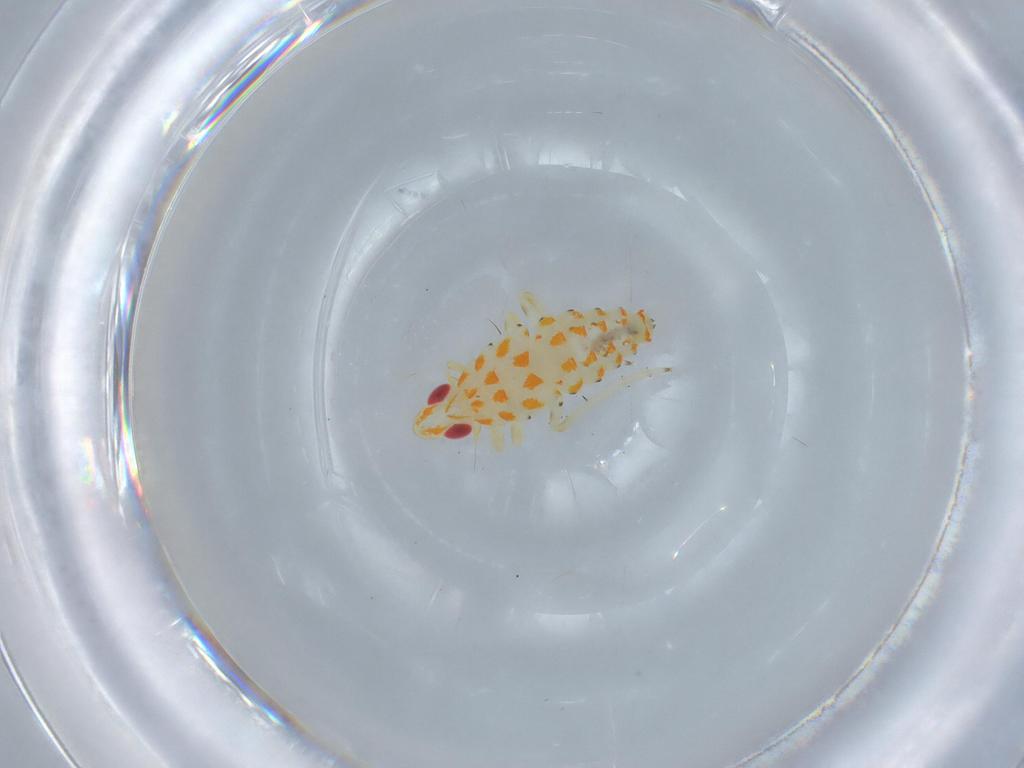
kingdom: Animalia
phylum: Arthropoda
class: Insecta
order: Hemiptera
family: Tropiduchidae
